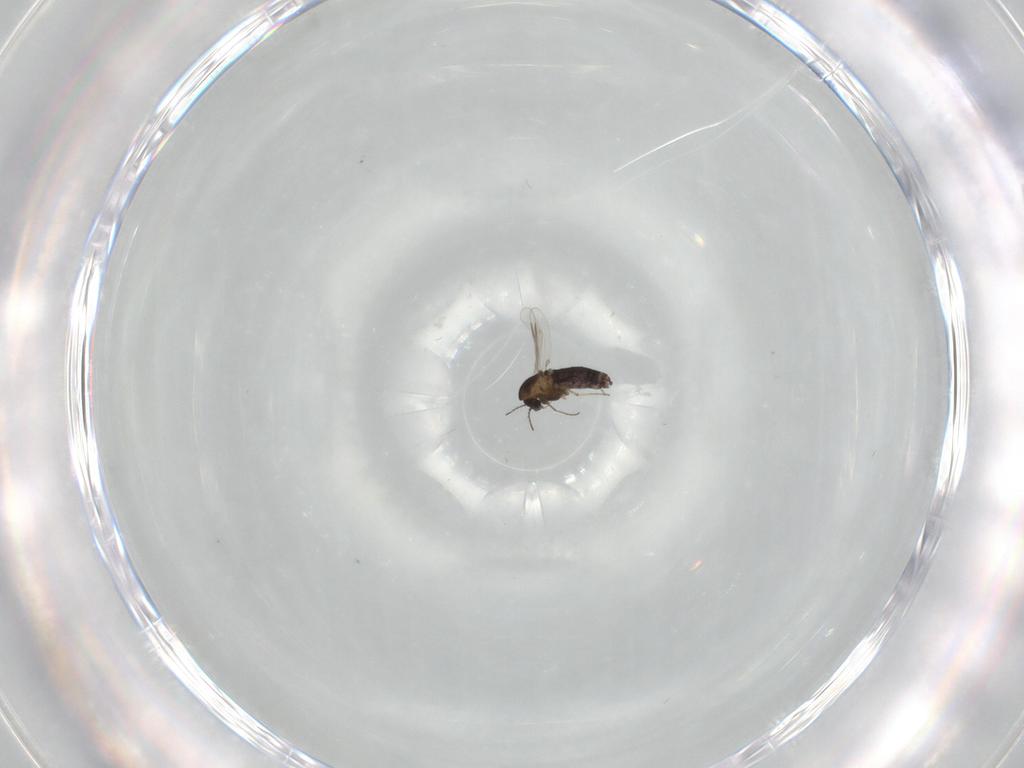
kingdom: Animalia
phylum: Arthropoda
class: Insecta
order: Diptera
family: Chironomidae
